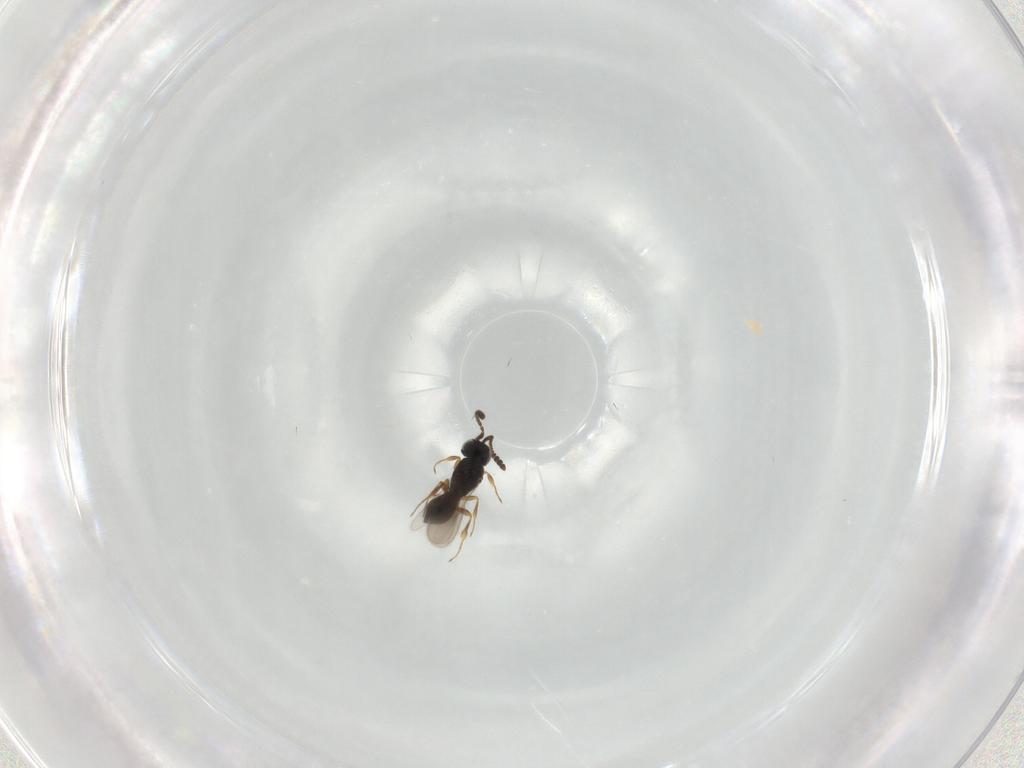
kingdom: Animalia
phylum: Arthropoda
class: Insecta
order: Hymenoptera
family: Scelionidae
